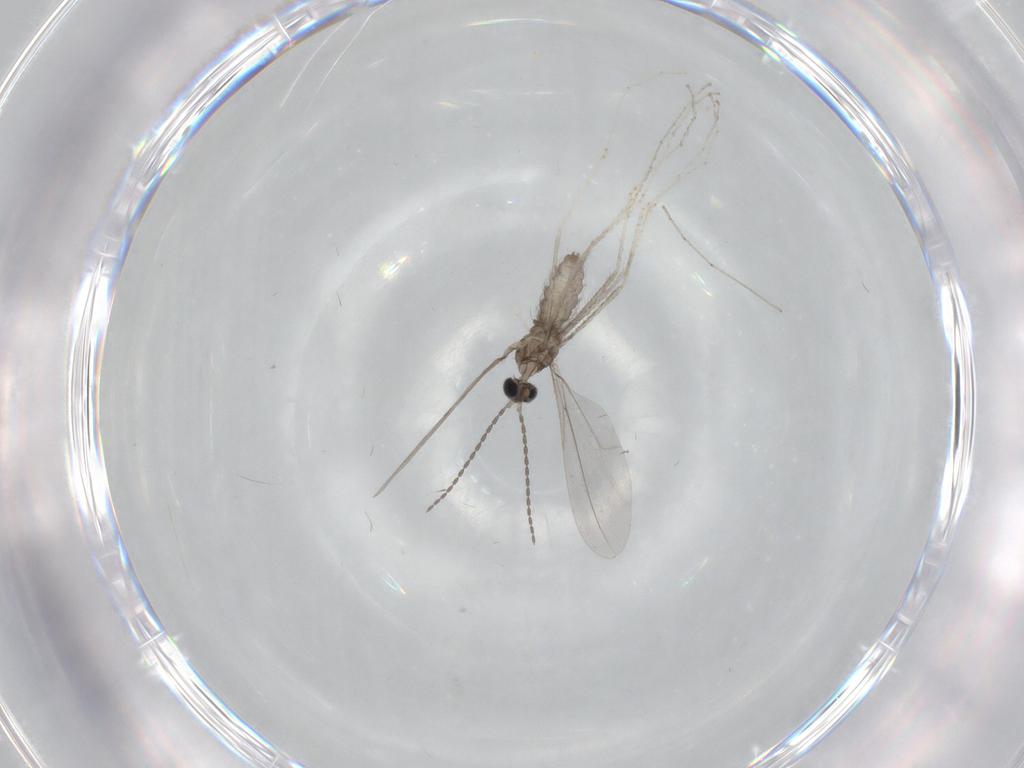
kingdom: Animalia
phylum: Arthropoda
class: Insecta
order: Diptera
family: Cecidomyiidae
